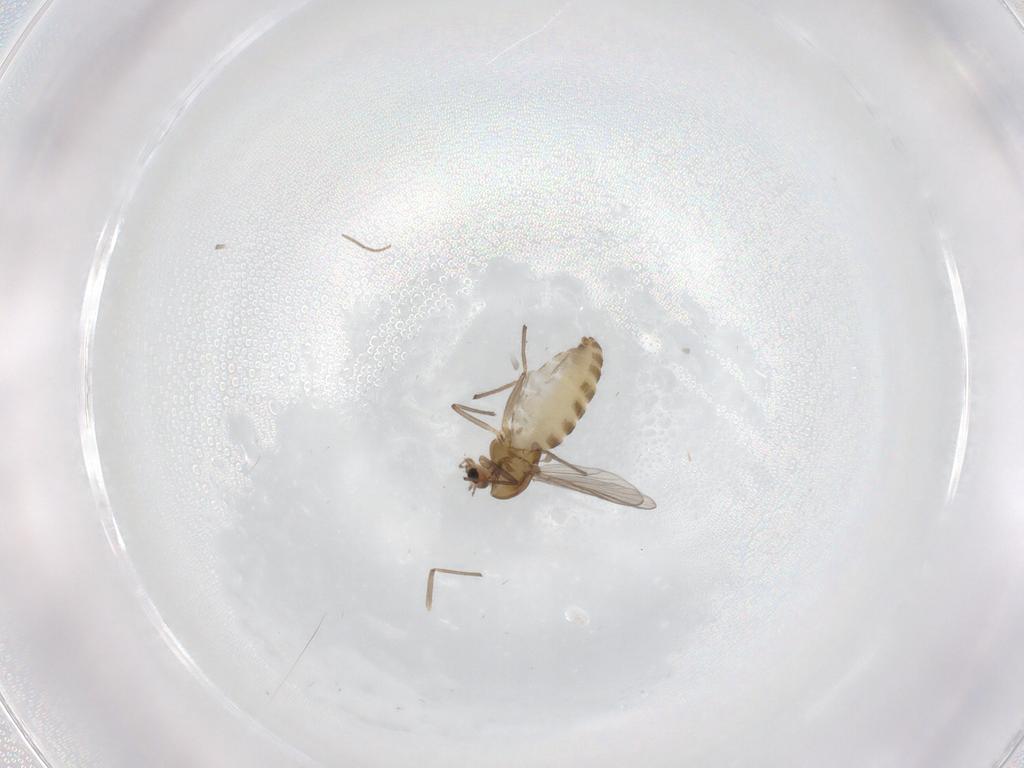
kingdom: Animalia
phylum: Arthropoda
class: Insecta
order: Diptera
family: Chironomidae
